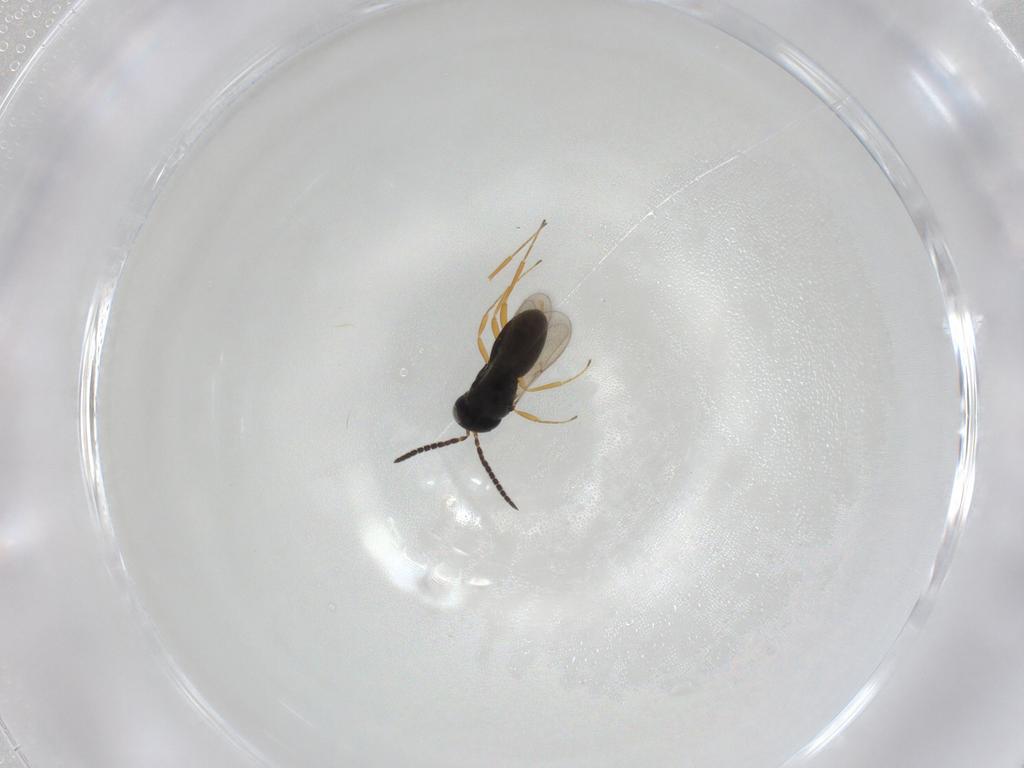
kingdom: Animalia
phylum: Arthropoda
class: Insecta
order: Hymenoptera
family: Scelionidae
